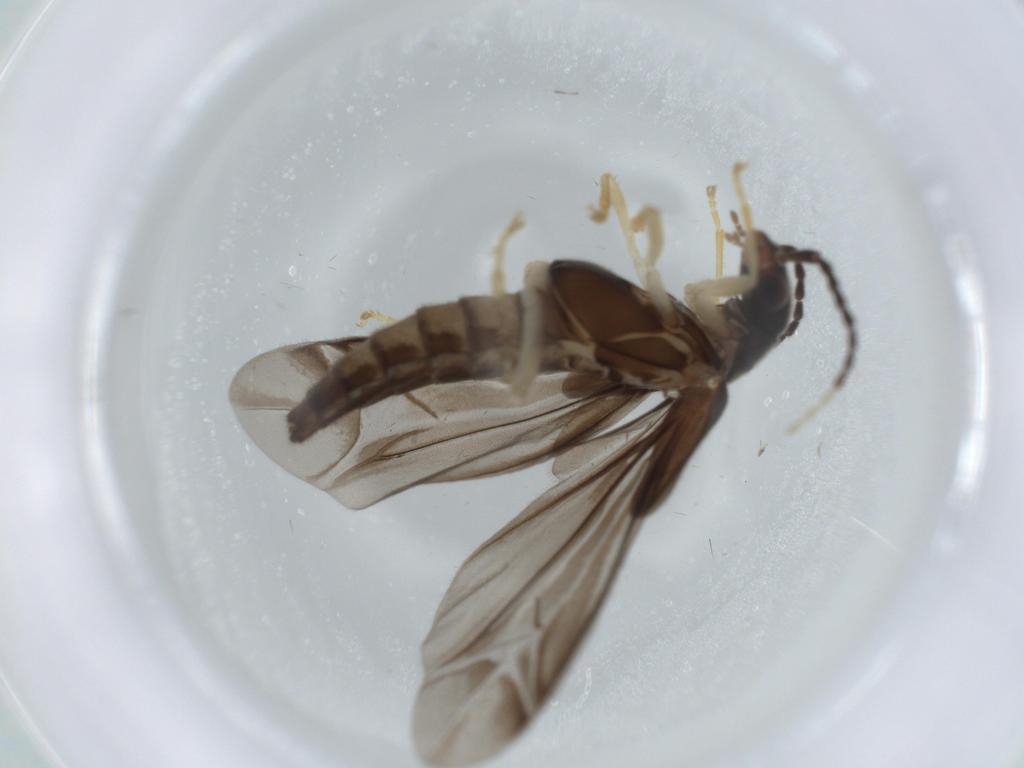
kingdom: Animalia
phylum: Arthropoda
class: Insecta
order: Coleoptera
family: Cantharidae
